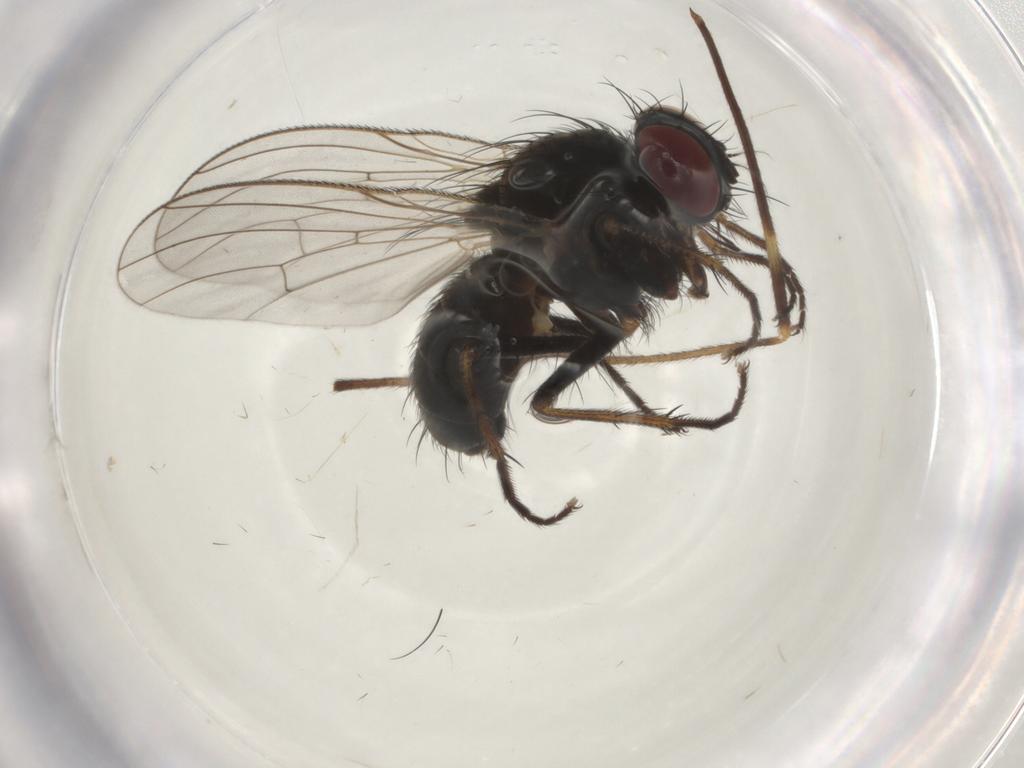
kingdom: Animalia
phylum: Arthropoda
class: Insecta
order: Diptera
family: Limoniidae
